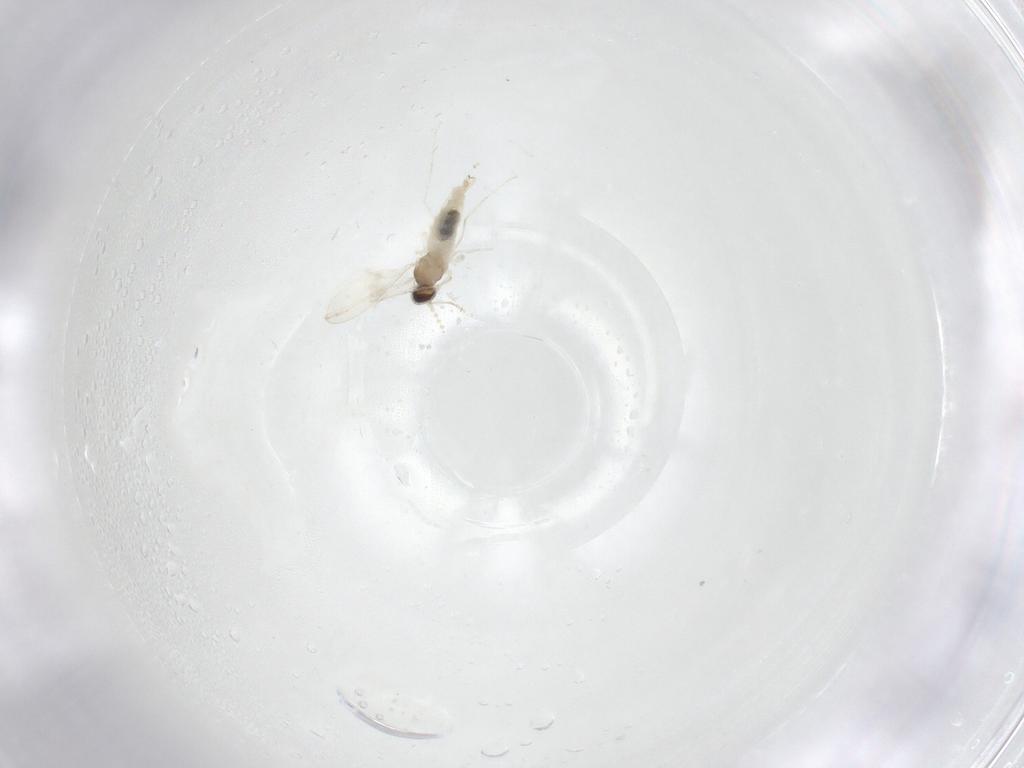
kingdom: Animalia
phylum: Arthropoda
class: Insecta
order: Diptera
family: Cecidomyiidae
